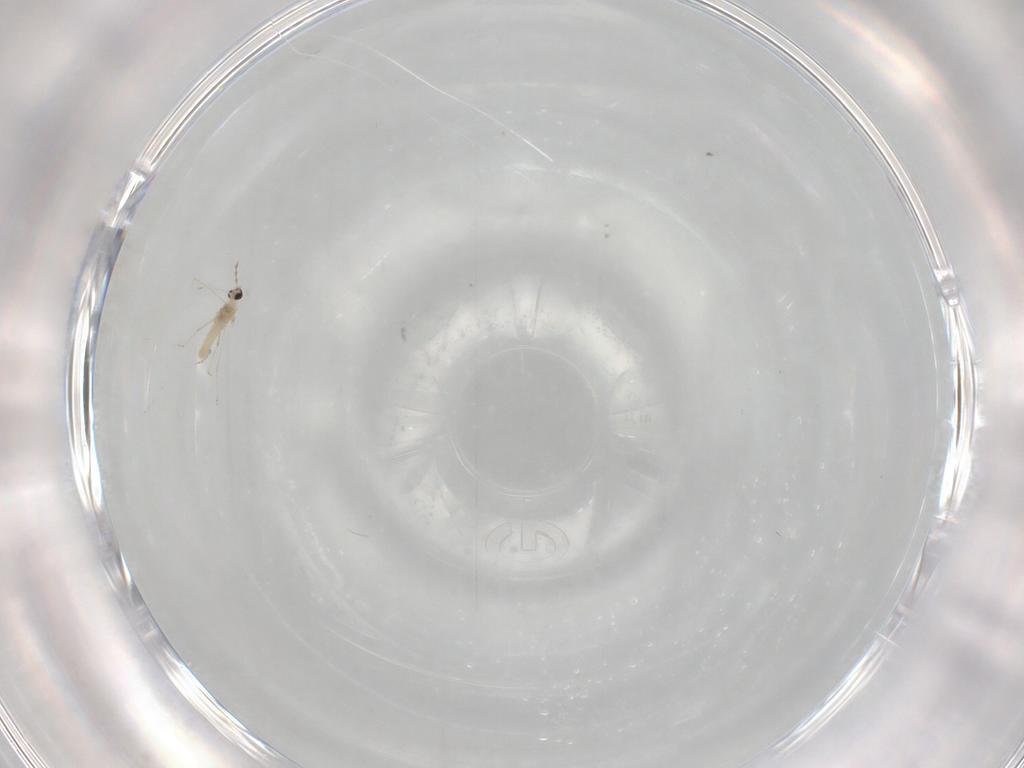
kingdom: Animalia
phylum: Arthropoda
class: Insecta
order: Diptera
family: Cecidomyiidae
